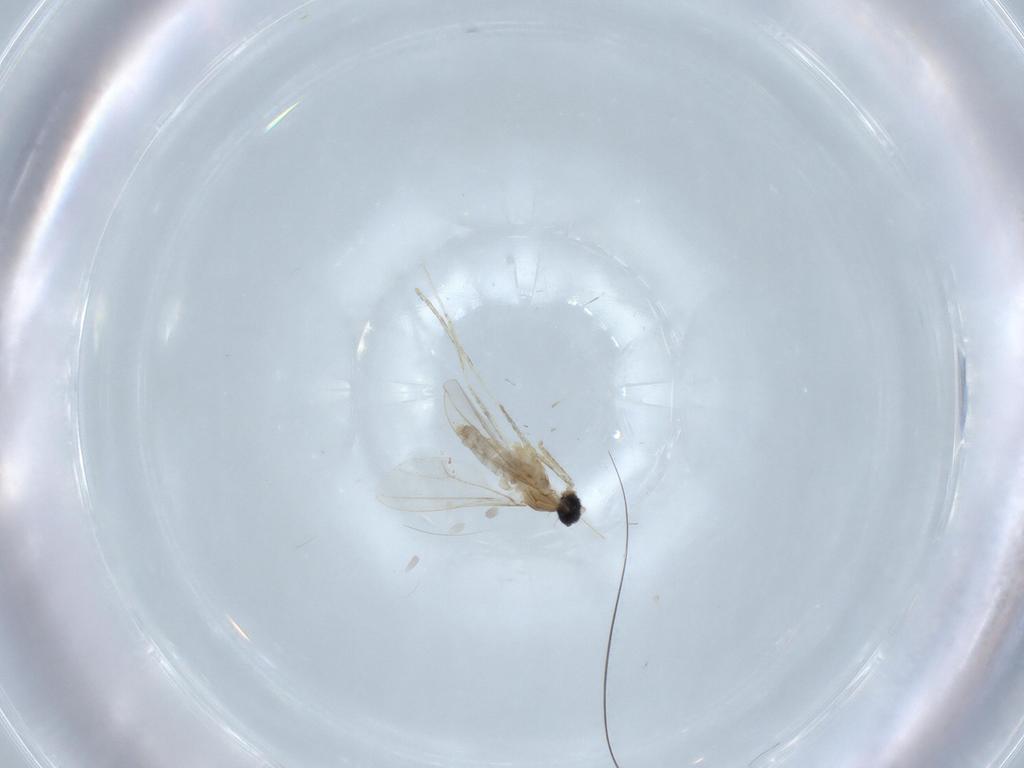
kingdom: Animalia
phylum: Arthropoda
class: Insecta
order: Diptera
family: Cecidomyiidae
